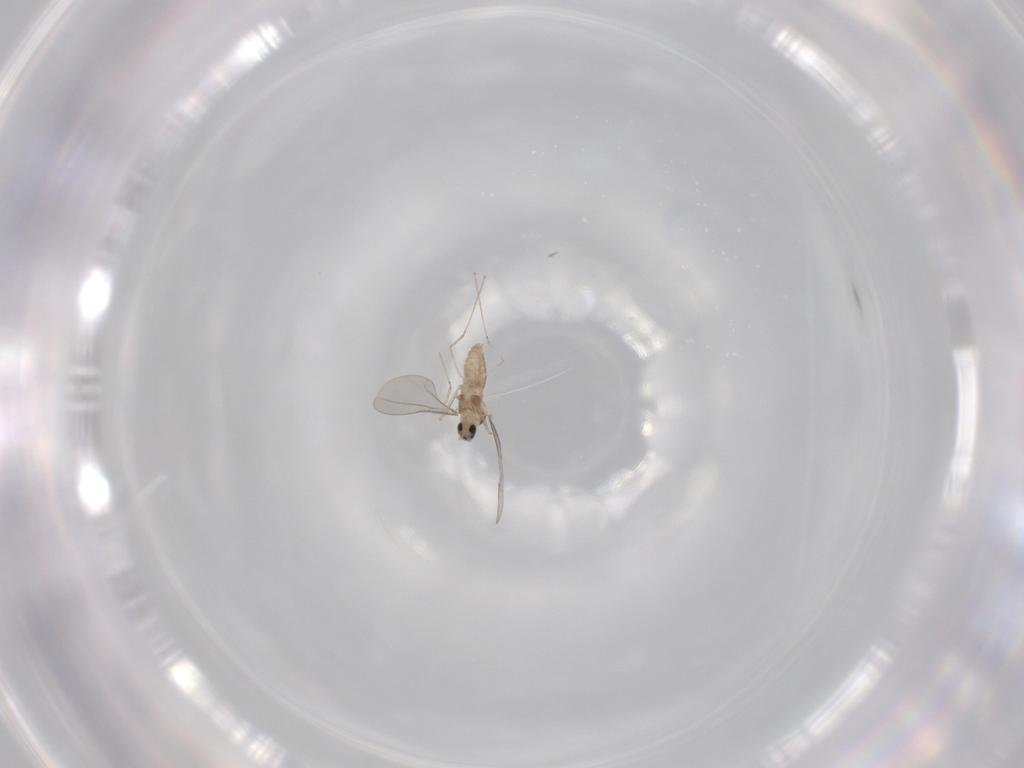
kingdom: Animalia
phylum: Arthropoda
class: Insecta
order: Diptera
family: Cecidomyiidae
